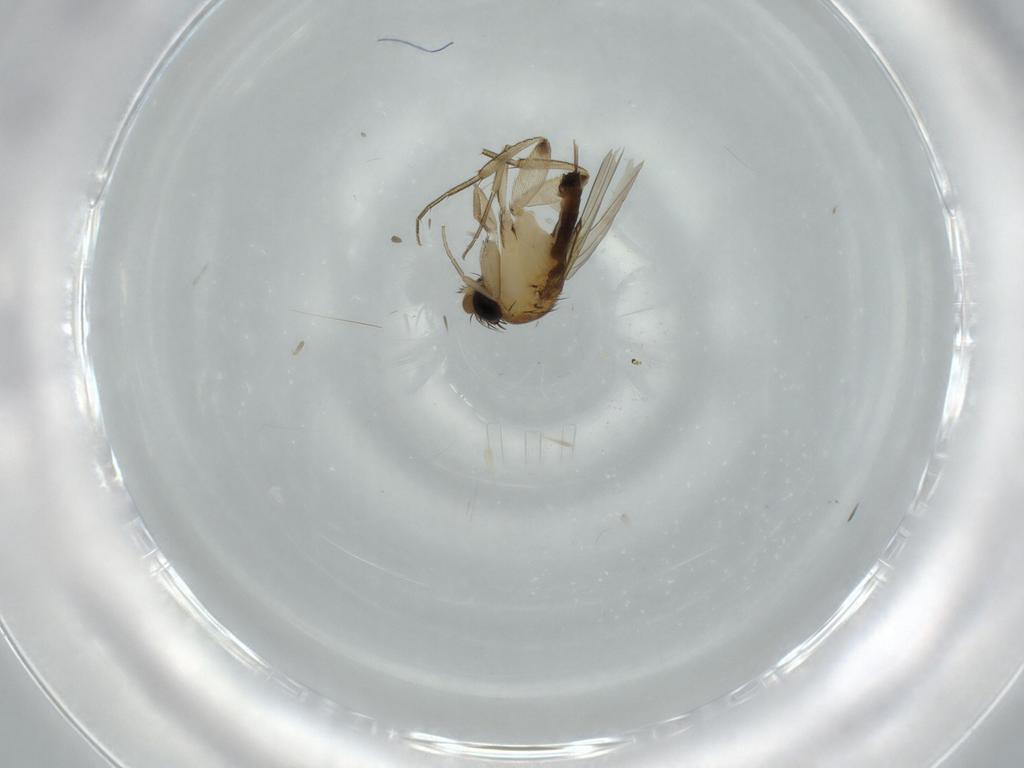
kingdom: Animalia
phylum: Arthropoda
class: Insecta
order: Diptera
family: Phoridae
